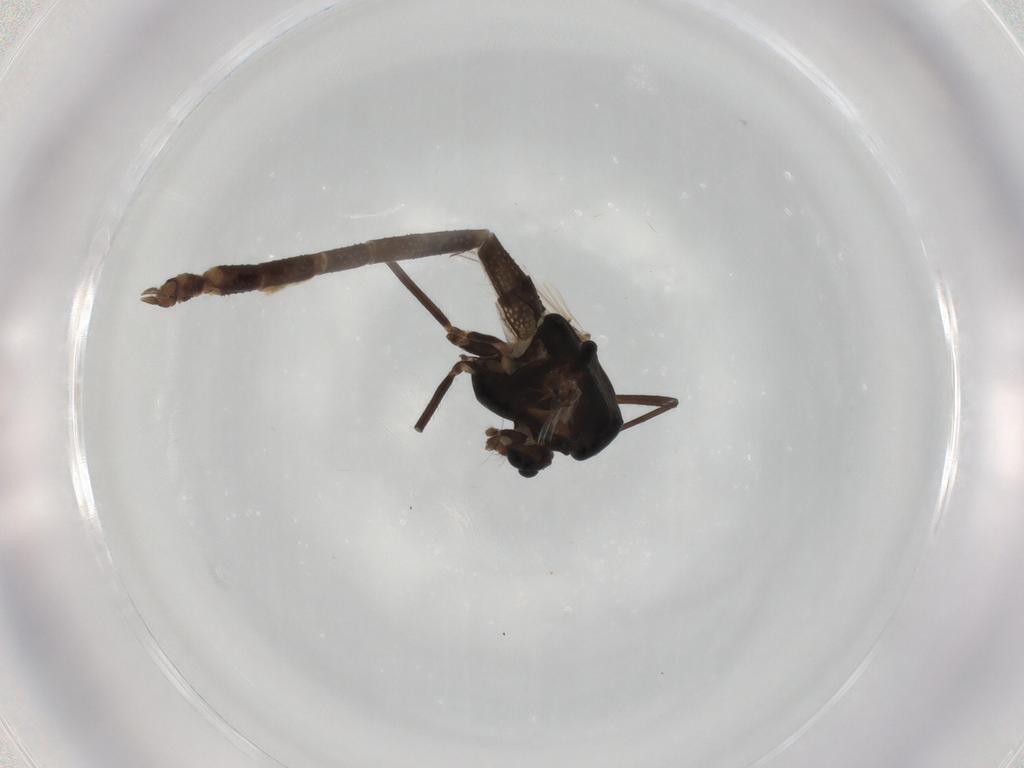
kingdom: Animalia
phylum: Arthropoda
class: Insecta
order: Diptera
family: Chironomidae
